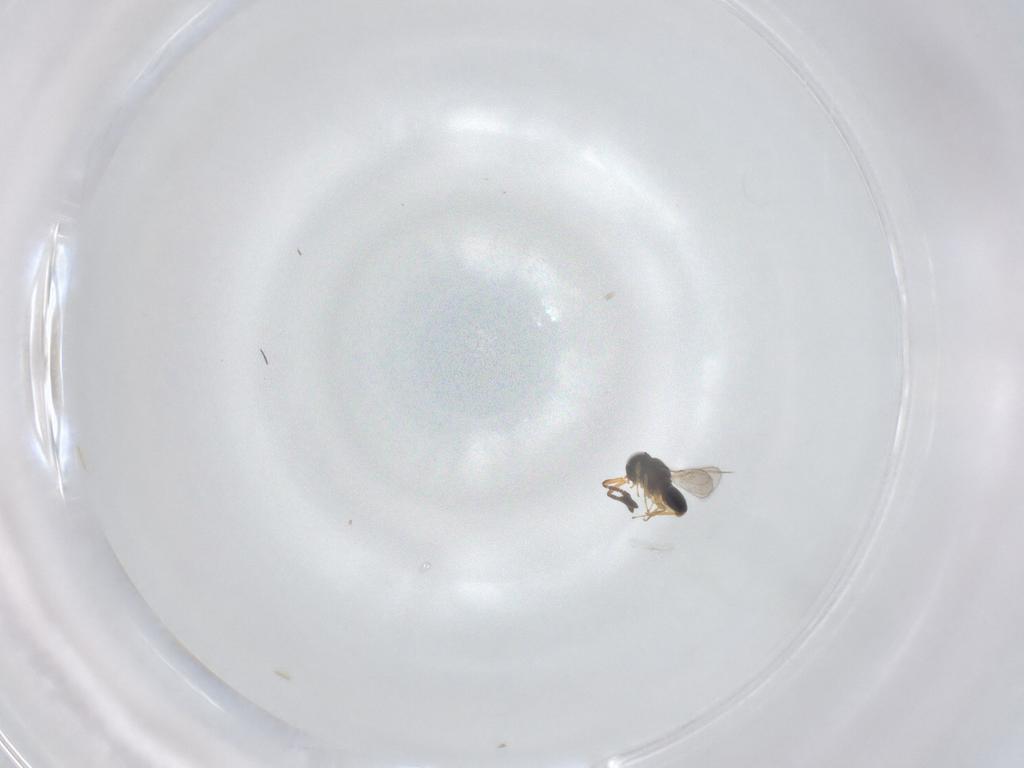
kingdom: Animalia
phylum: Arthropoda
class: Insecta
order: Hymenoptera
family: Scelionidae
